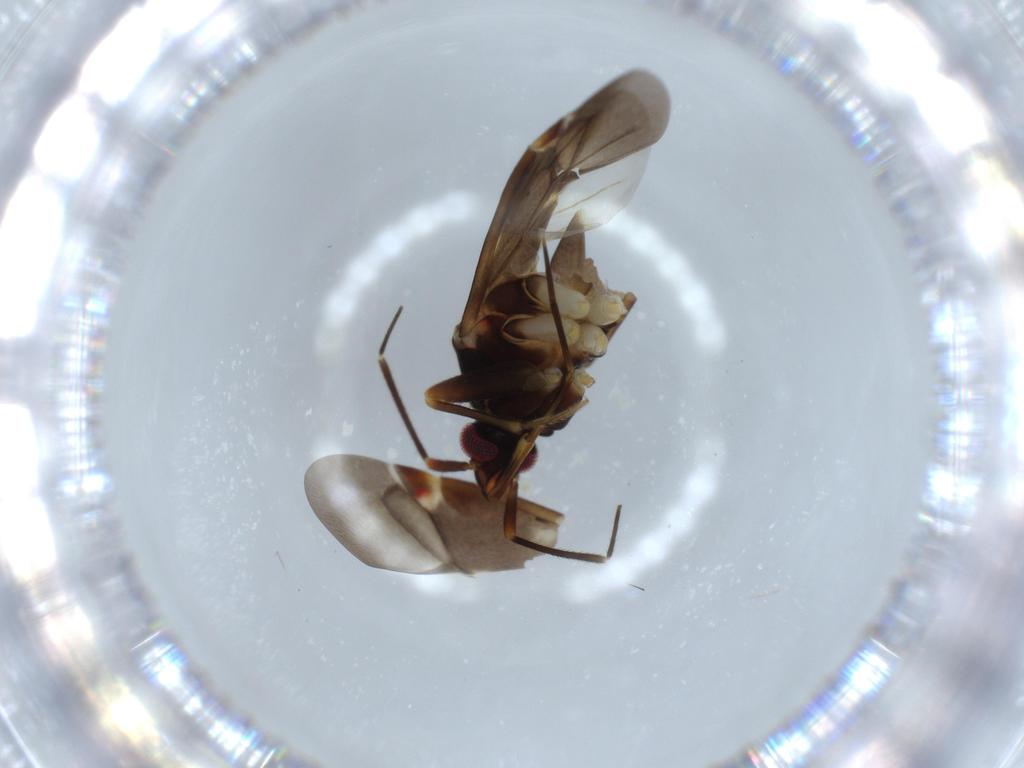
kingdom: Animalia
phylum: Arthropoda
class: Insecta
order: Hemiptera
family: Miridae
